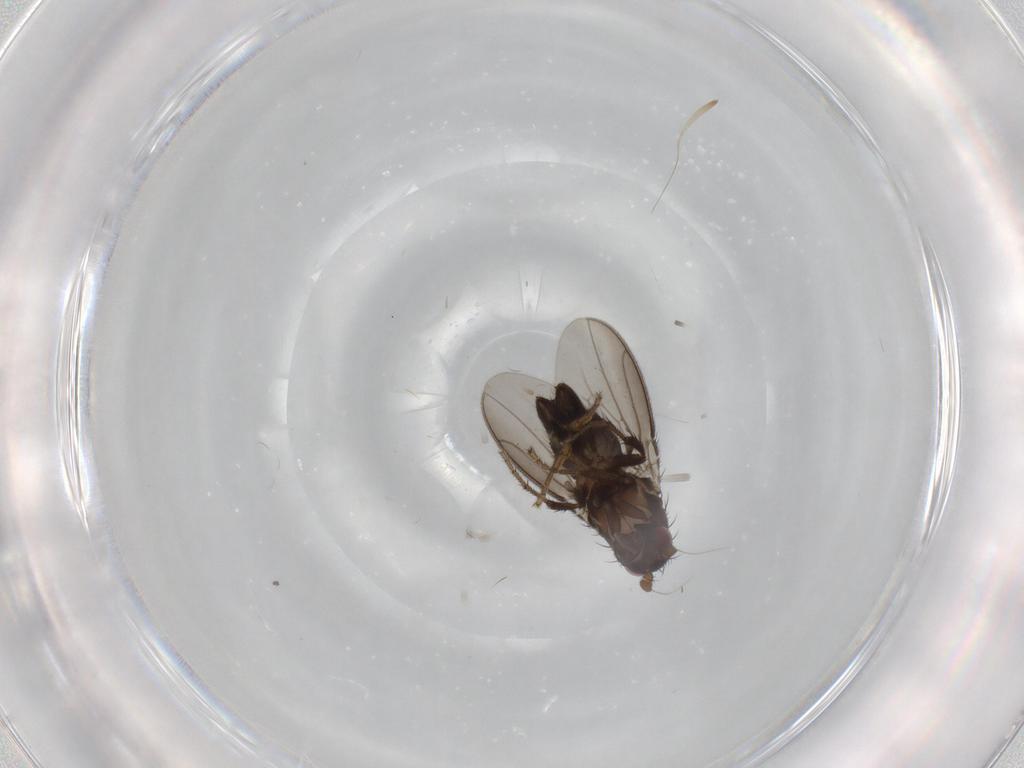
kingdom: Animalia
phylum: Arthropoda
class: Insecta
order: Diptera
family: Sphaeroceridae
